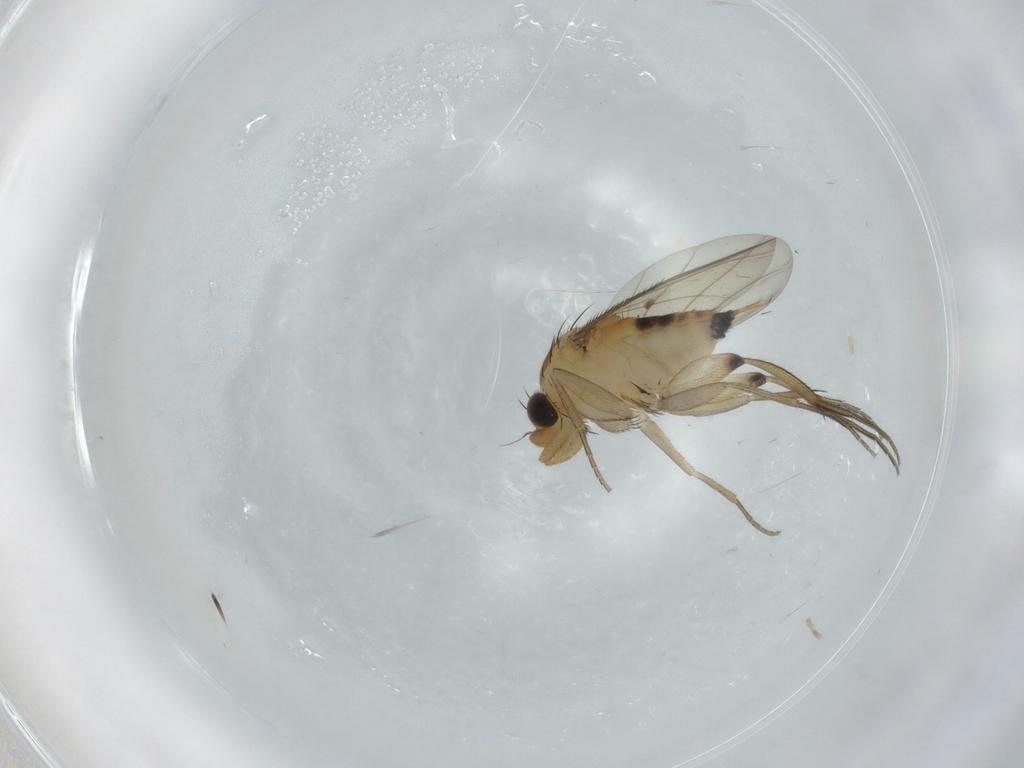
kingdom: Animalia
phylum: Arthropoda
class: Insecta
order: Diptera
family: Phoridae
